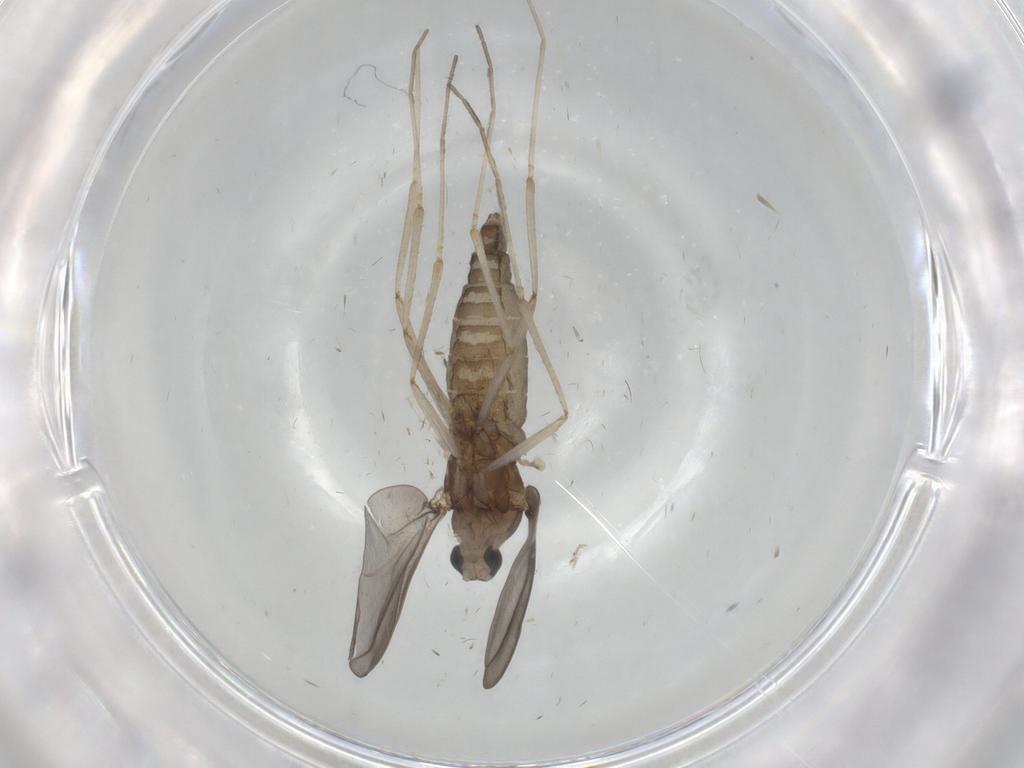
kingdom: Animalia
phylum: Arthropoda
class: Insecta
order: Diptera
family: Cecidomyiidae
